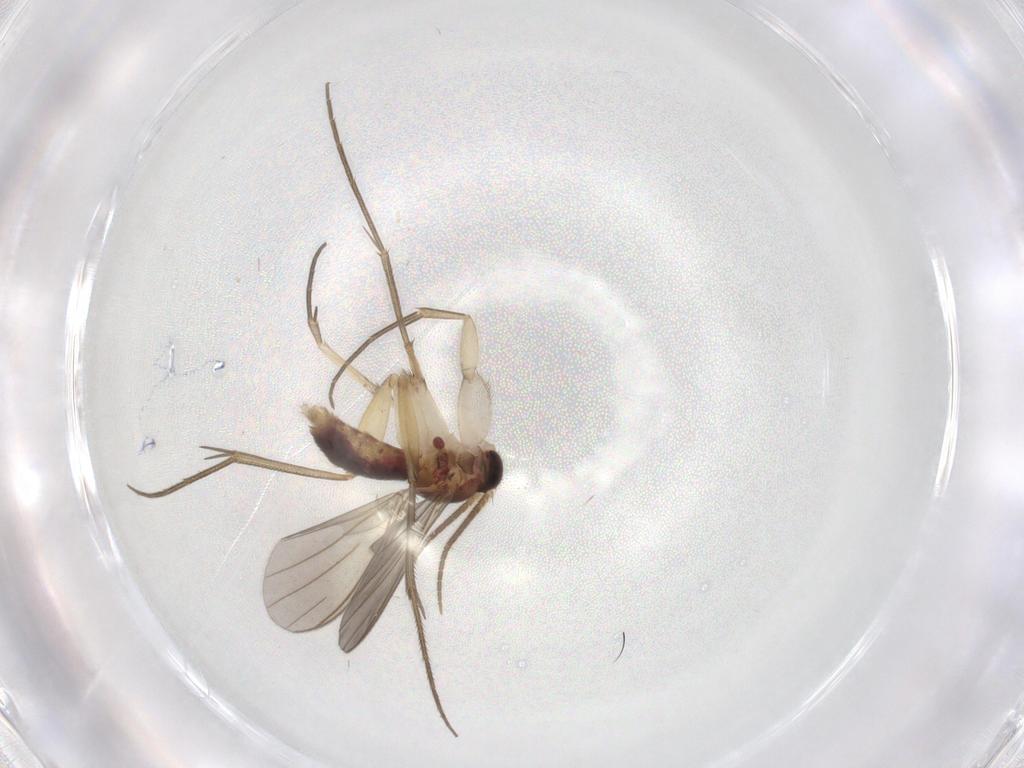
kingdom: Animalia
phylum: Arthropoda
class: Insecta
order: Diptera
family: Mycetophilidae
